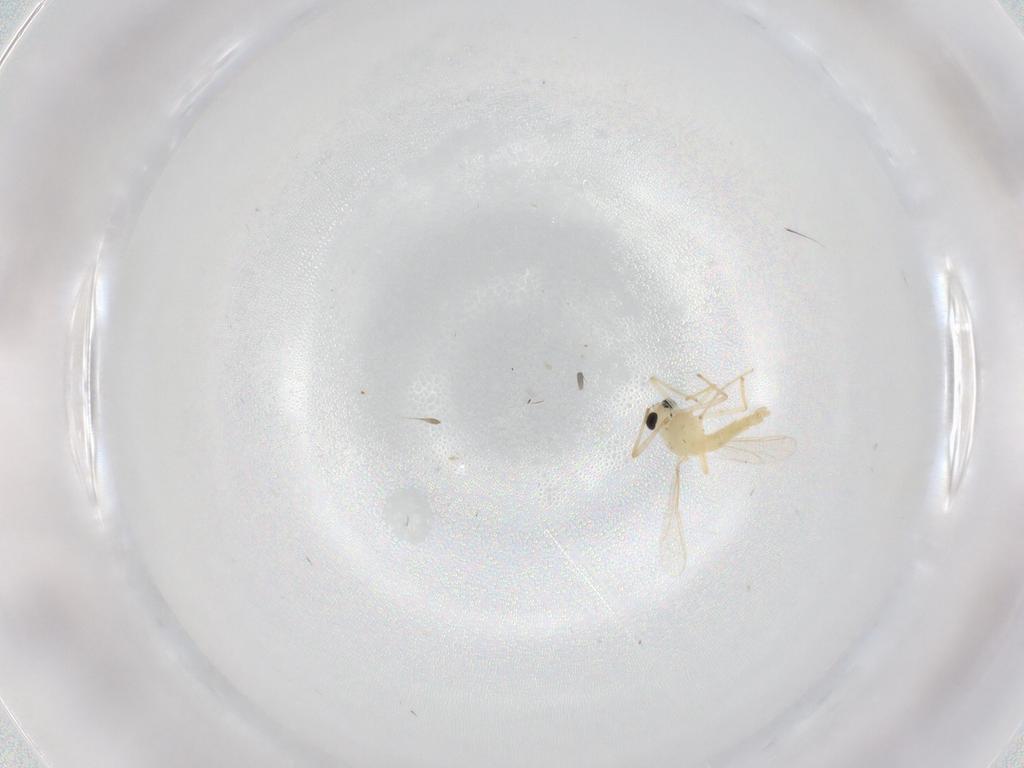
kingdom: Animalia
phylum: Arthropoda
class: Insecta
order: Diptera
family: Chironomidae
